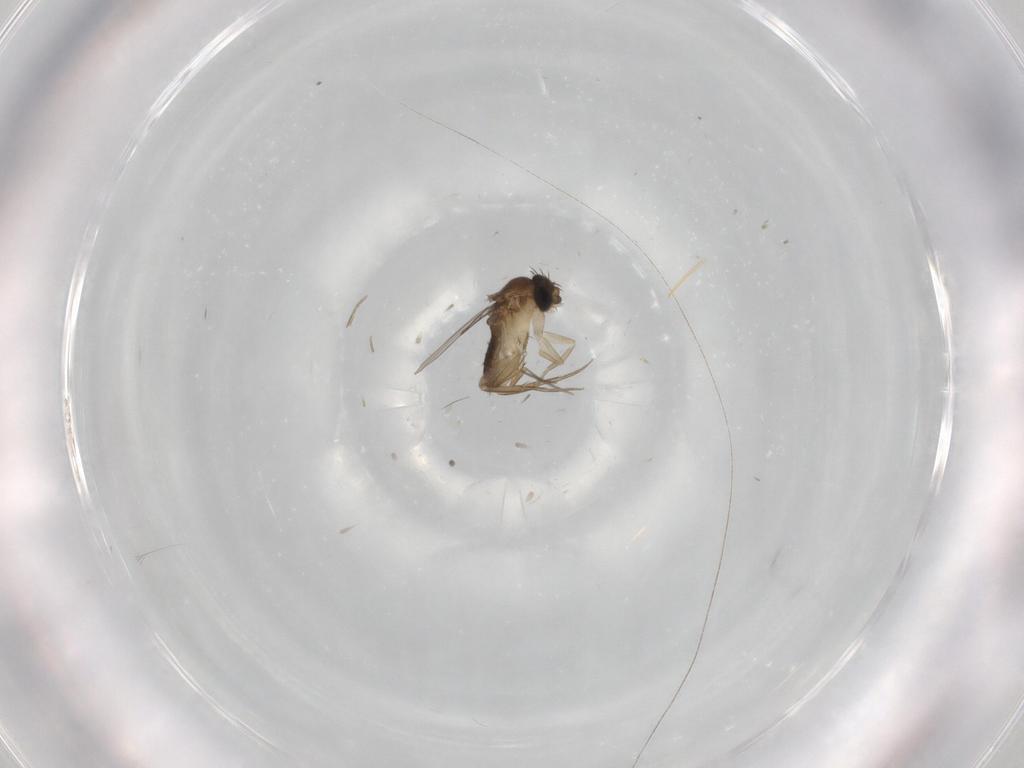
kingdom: Animalia
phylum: Arthropoda
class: Insecta
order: Diptera
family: Phoridae
